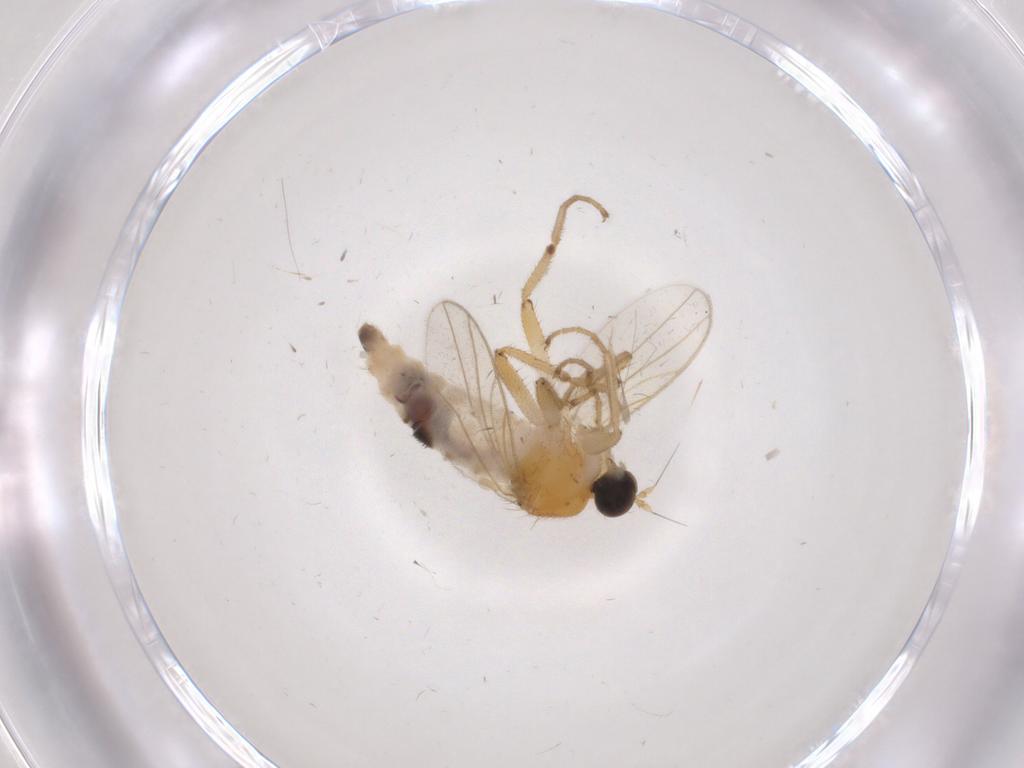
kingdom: Animalia
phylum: Arthropoda
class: Insecta
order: Diptera
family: Hybotidae
